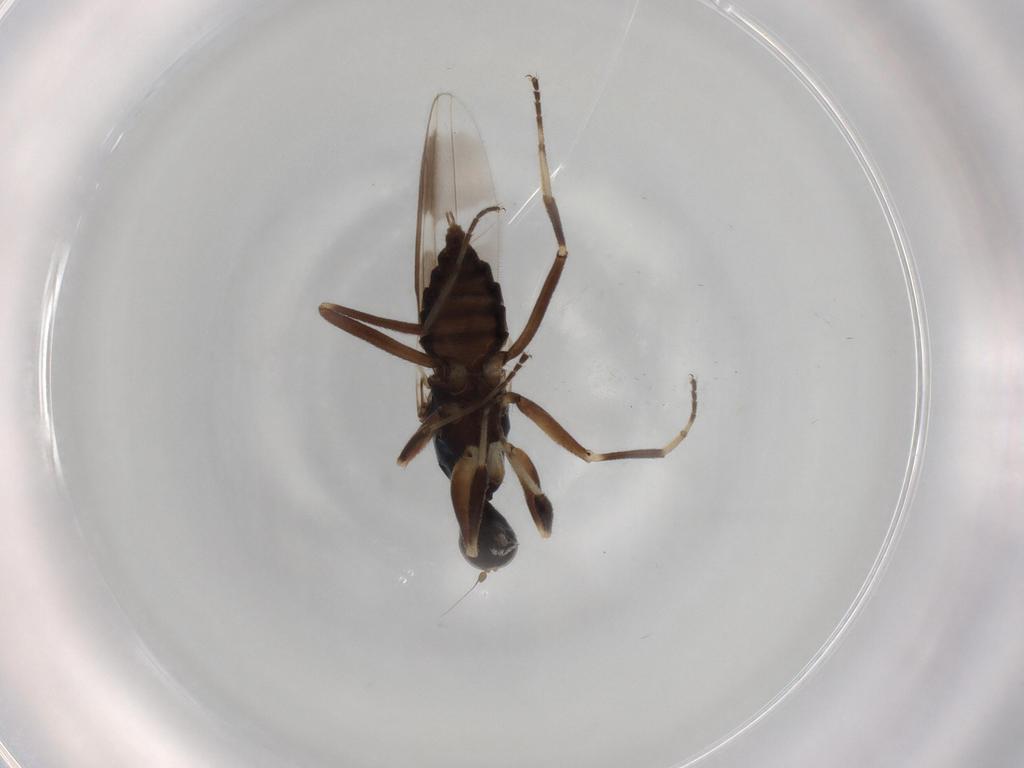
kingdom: Animalia
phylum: Arthropoda
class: Insecta
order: Diptera
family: Hybotidae
